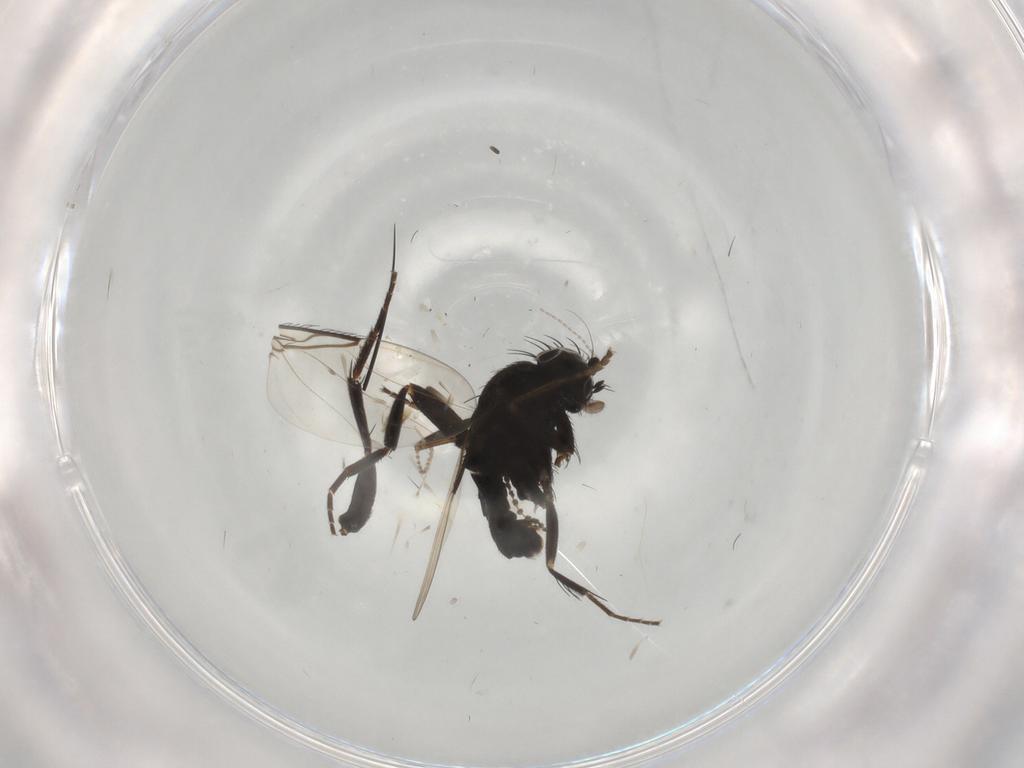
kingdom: Animalia
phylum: Arthropoda
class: Insecta
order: Diptera
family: Phoridae
